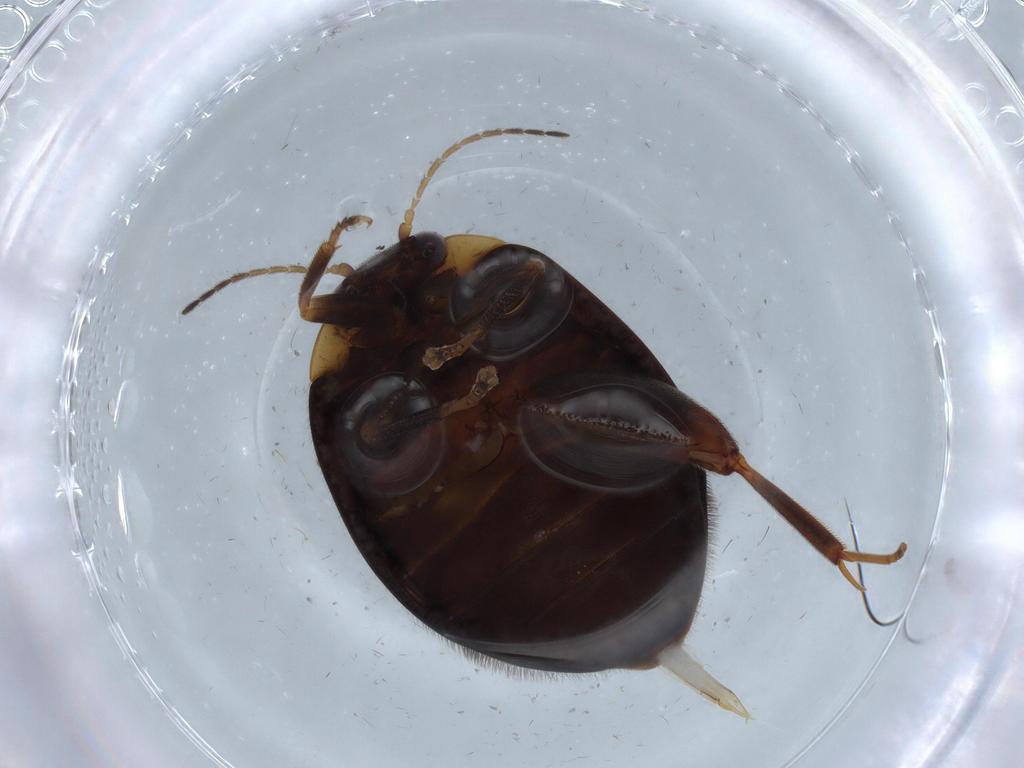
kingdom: Animalia
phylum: Arthropoda
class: Insecta
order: Coleoptera
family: Scirtidae
